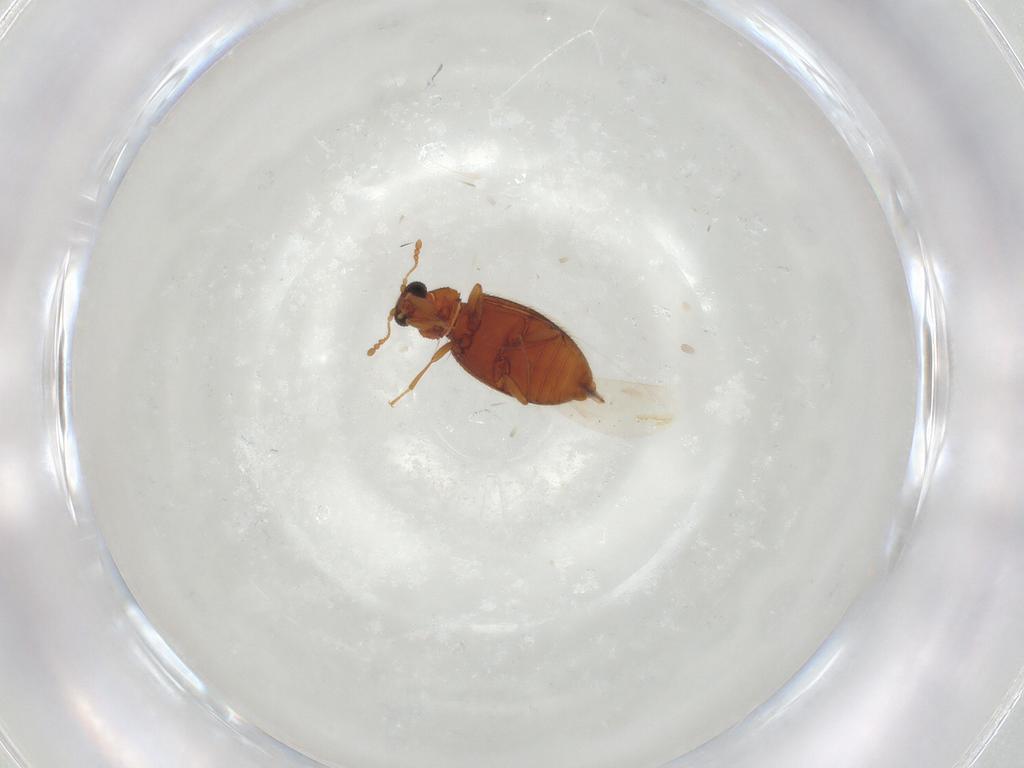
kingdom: Animalia
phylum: Arthropoda
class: Insecta
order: Coleoptera
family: Latridiidae
